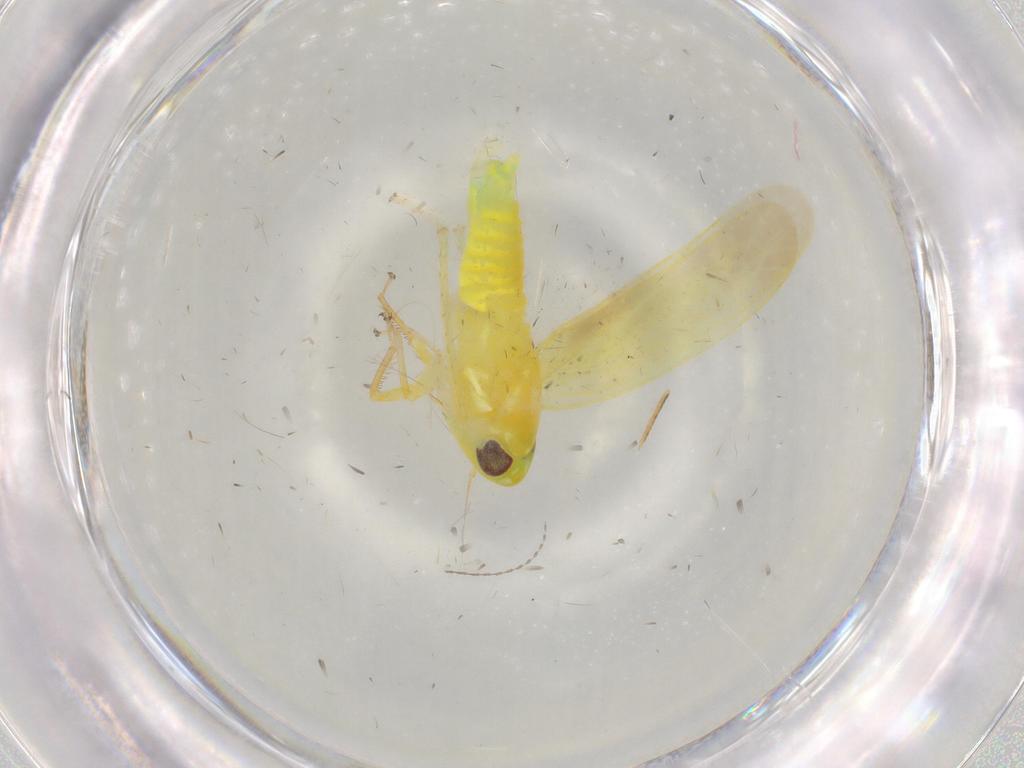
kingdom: Animalia
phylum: Arthropoda
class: Insecta
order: Hemiptera
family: Cicadellidae
